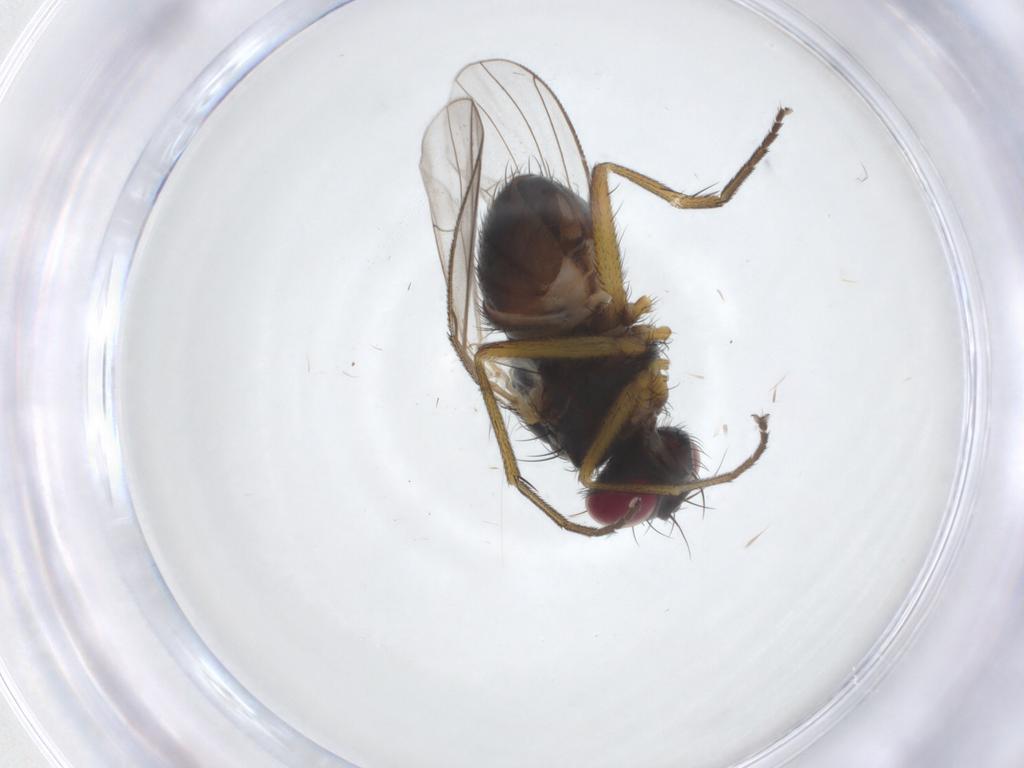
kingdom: Animalia
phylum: Arthropoda
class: Insecta
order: Diptera
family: Muscidae
